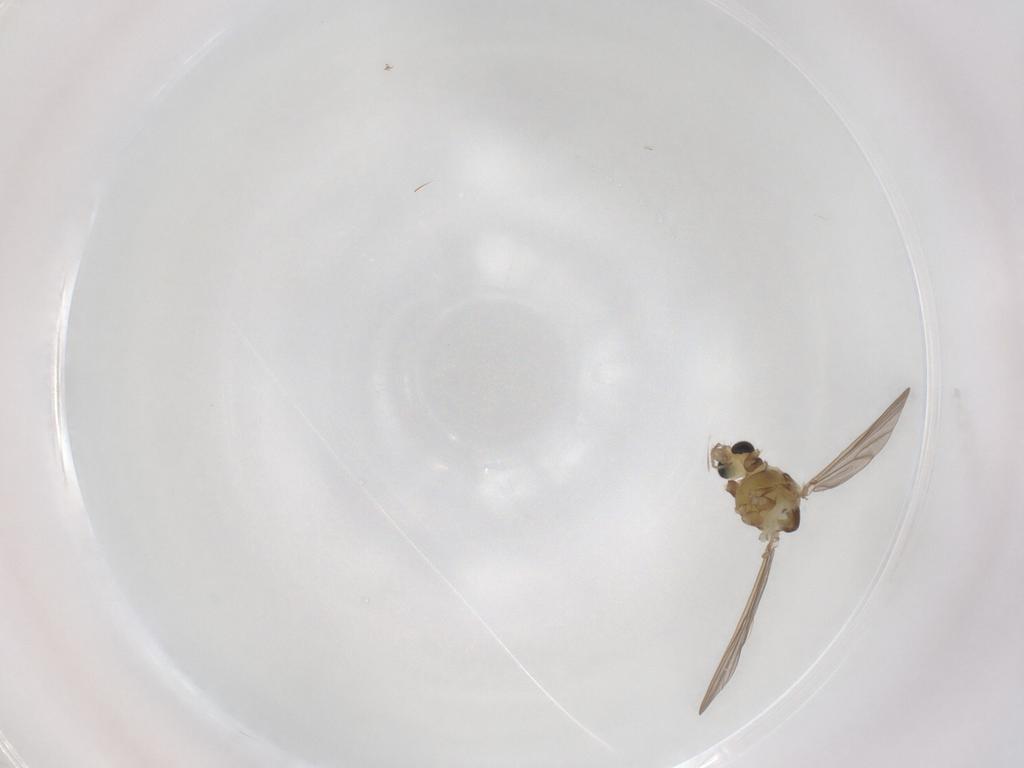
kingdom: Animalia
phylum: Arthropoda
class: Insecta
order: Diptera
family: Chironomidae
